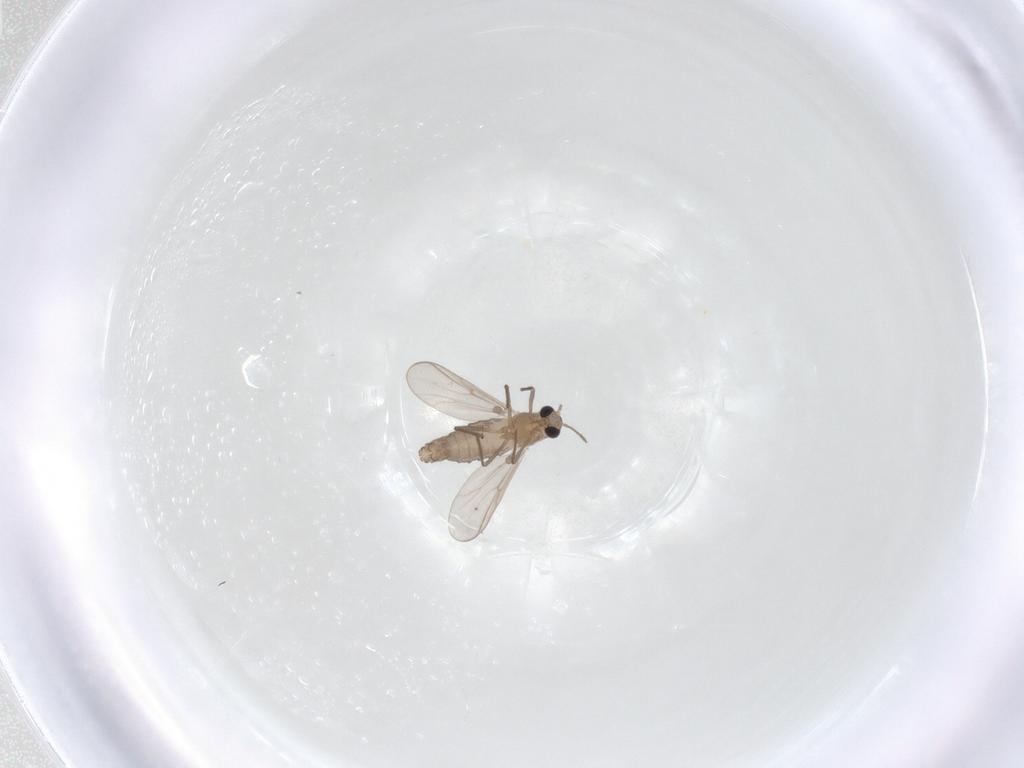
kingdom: Animalia
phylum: Arthropoda
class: Insecta
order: Diptera
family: Chironomidae
